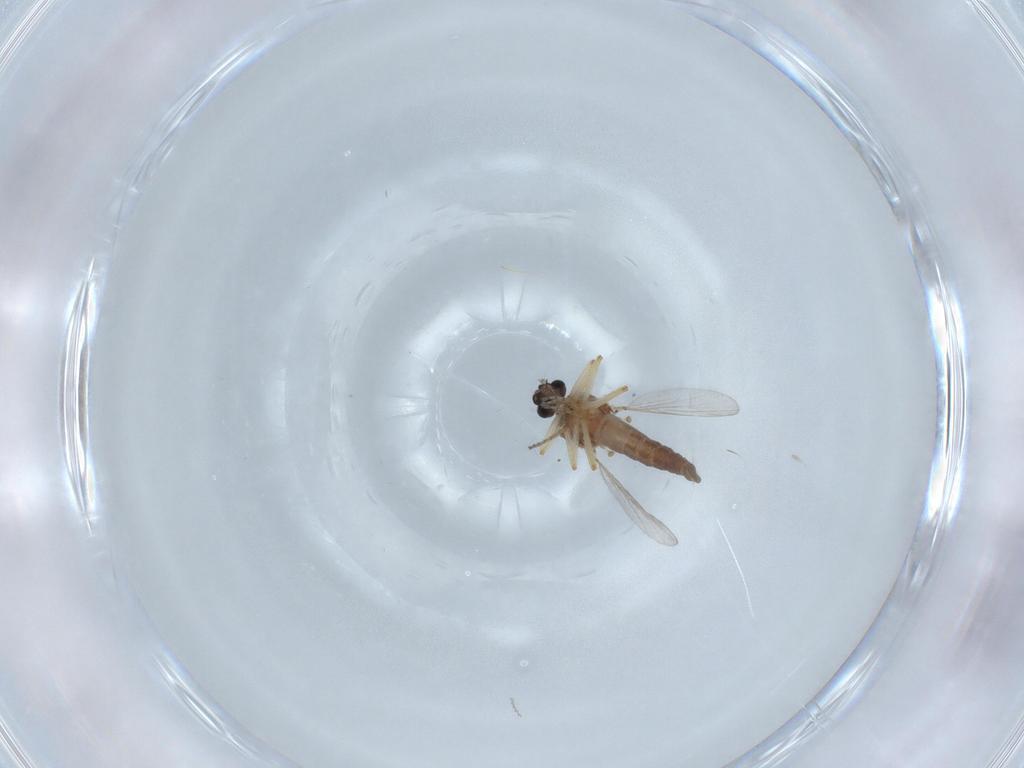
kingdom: Animalia
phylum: Arthropoda
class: Insecta
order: Diptera
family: Ceratopogonidae
